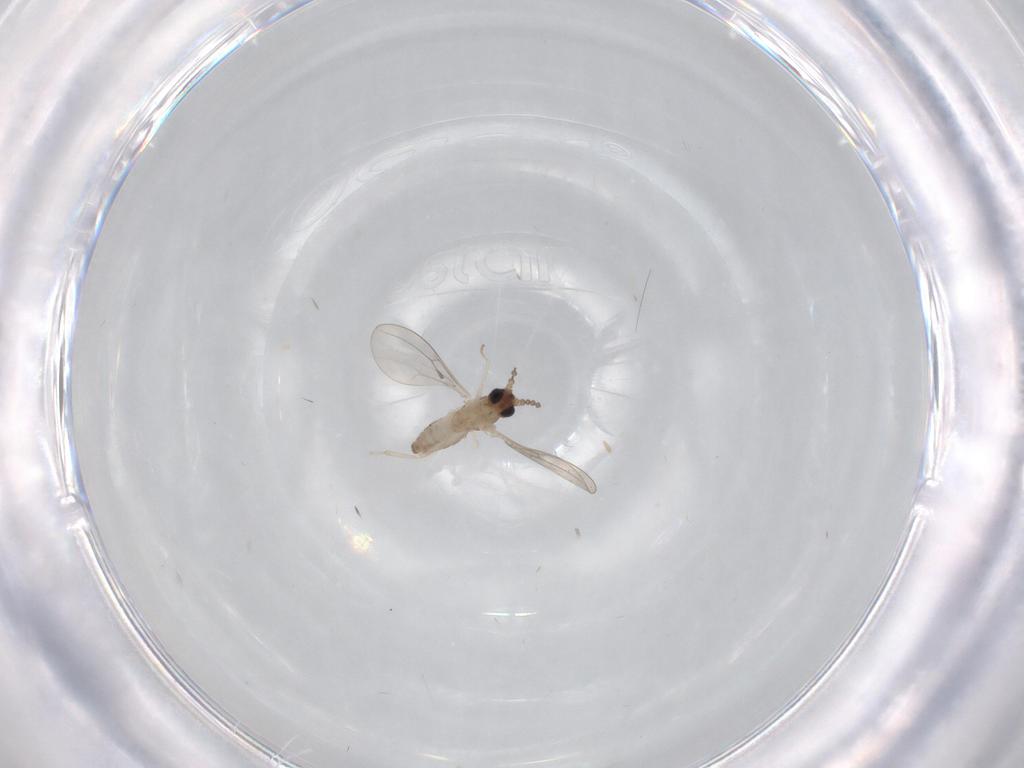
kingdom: Animalia
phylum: Arthropoda
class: Insecta
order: Diptera
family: Cecidomyiidae
